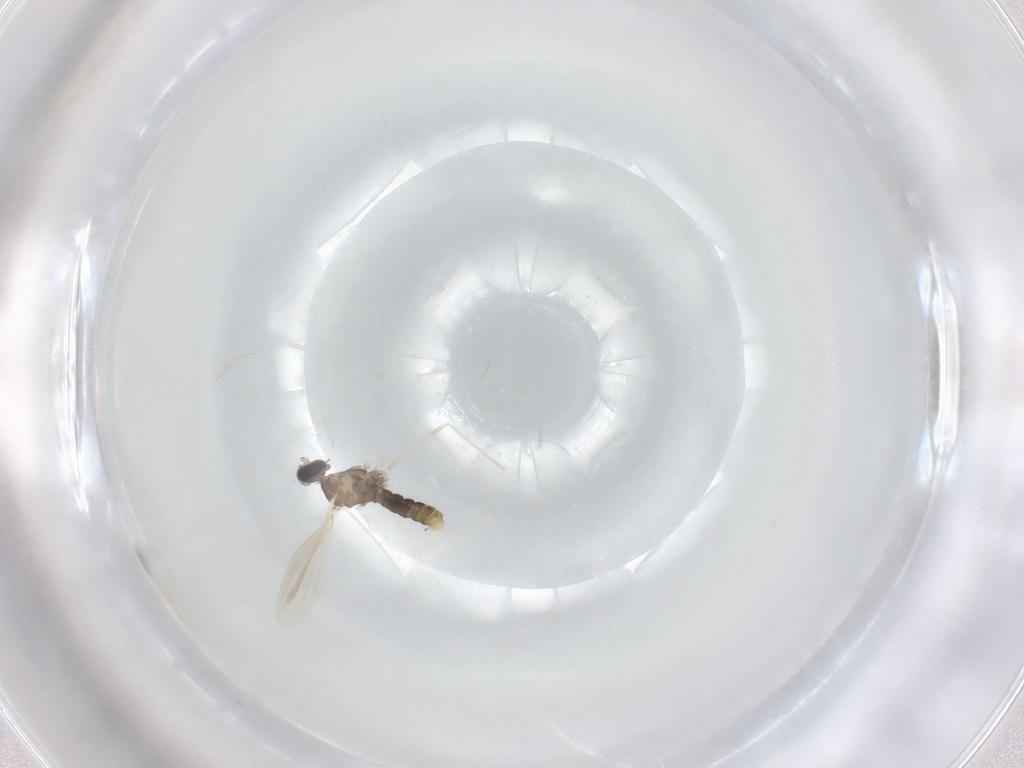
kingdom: Animalia
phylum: Arthropoda
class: Insecta
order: Diptera
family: Cecidomyiidae
